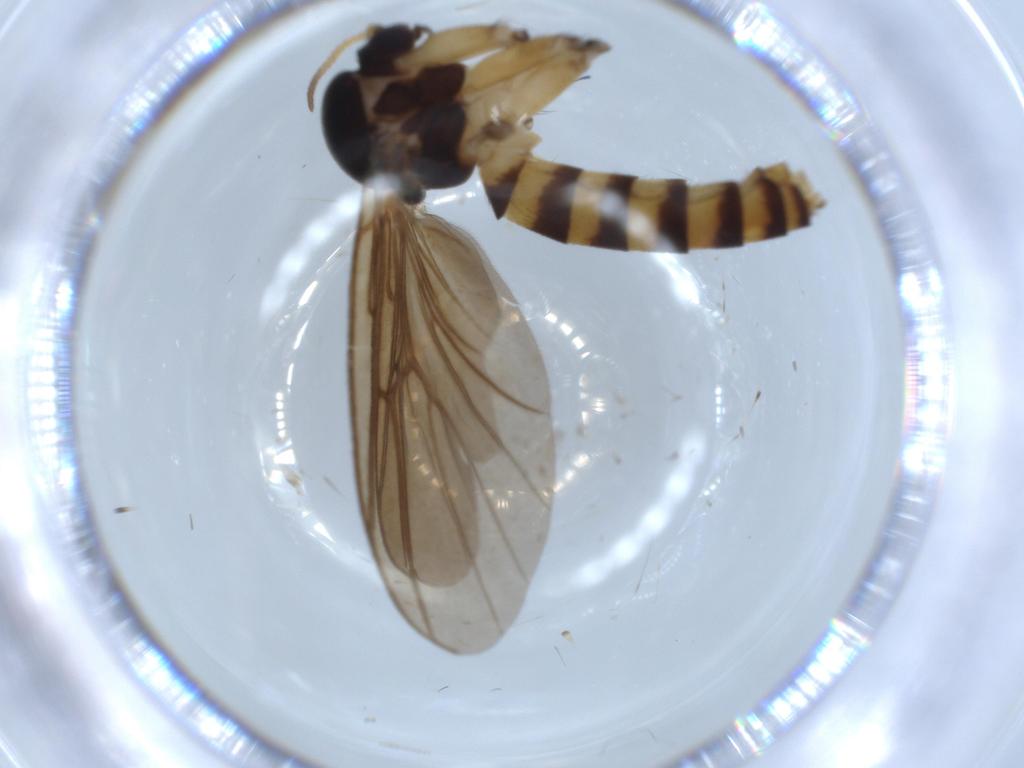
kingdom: Animalia
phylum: Arthropoda
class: Insecta
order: Diptera
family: Mycetophilidae
